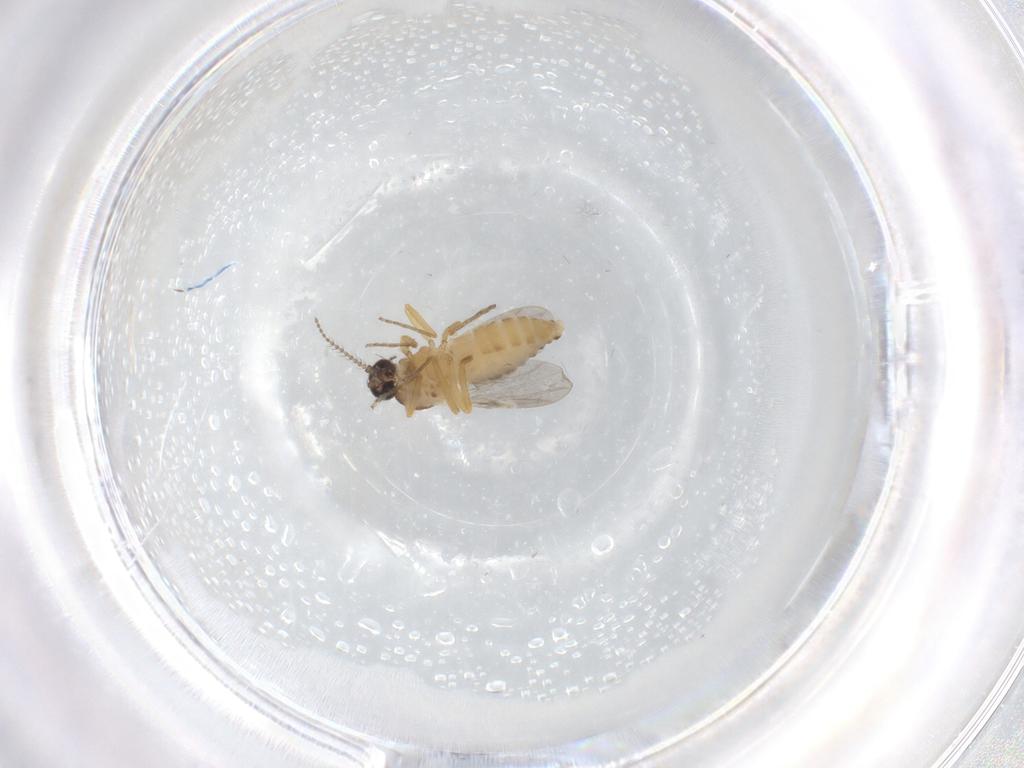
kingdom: Animalia
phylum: Arthropoda
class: Insecta
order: Diptera
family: Ceratopogonidae
